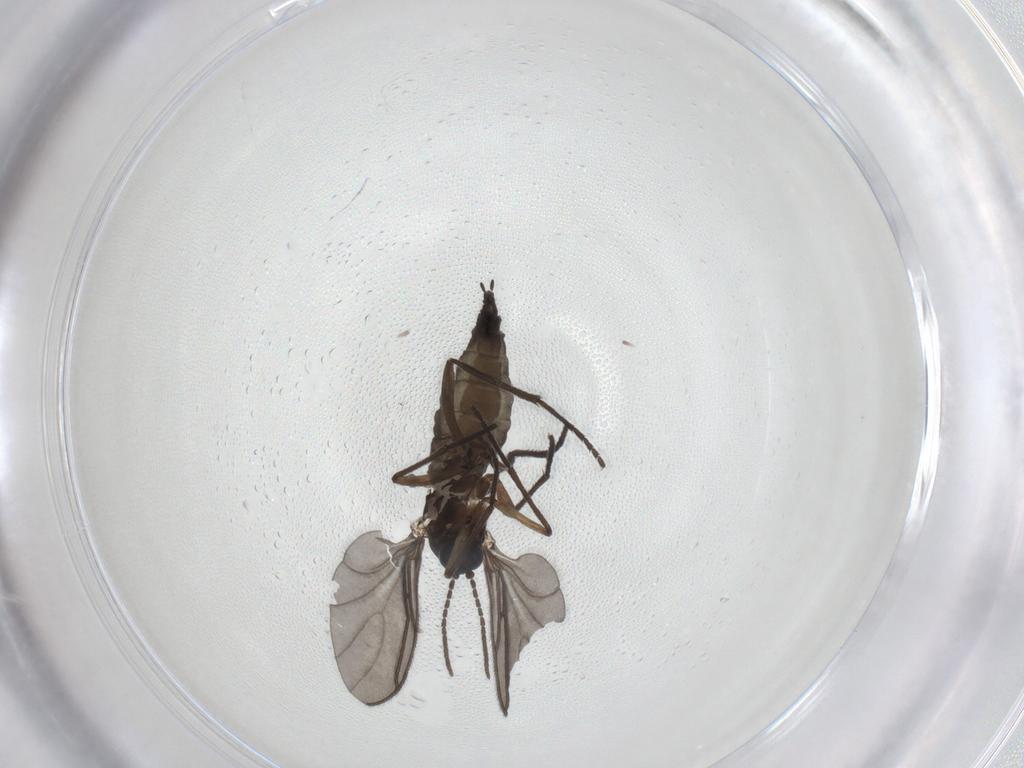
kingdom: Animalia
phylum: Arthropoda
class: Insecta
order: Diptera
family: Sciaridae
